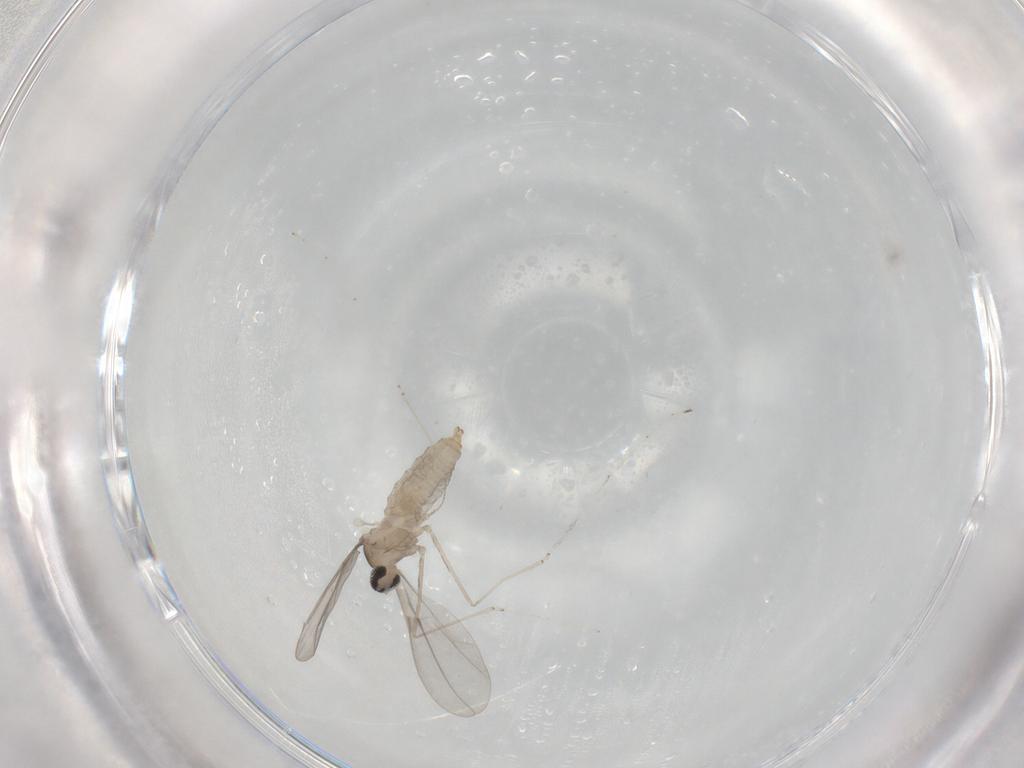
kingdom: Animalia
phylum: Arthropoda
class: Insecta
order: Diptera
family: Cecidomyiidae
